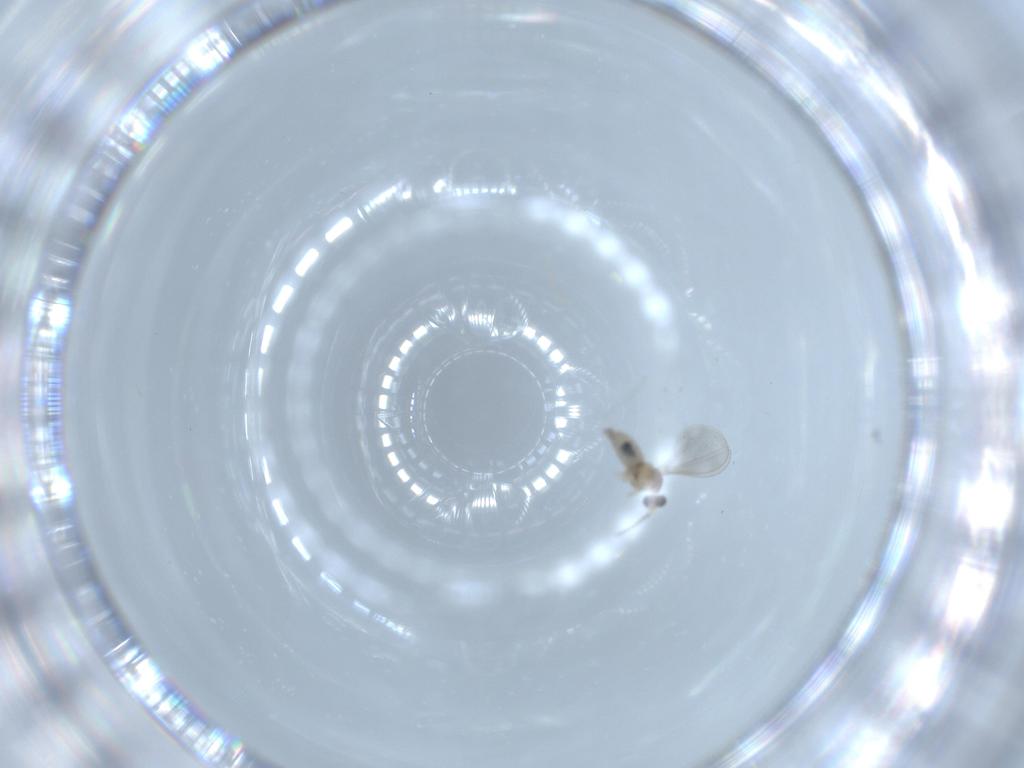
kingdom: Animalia
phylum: Arthropoda
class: Insecta
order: Diptera
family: Cecidomyiidae
